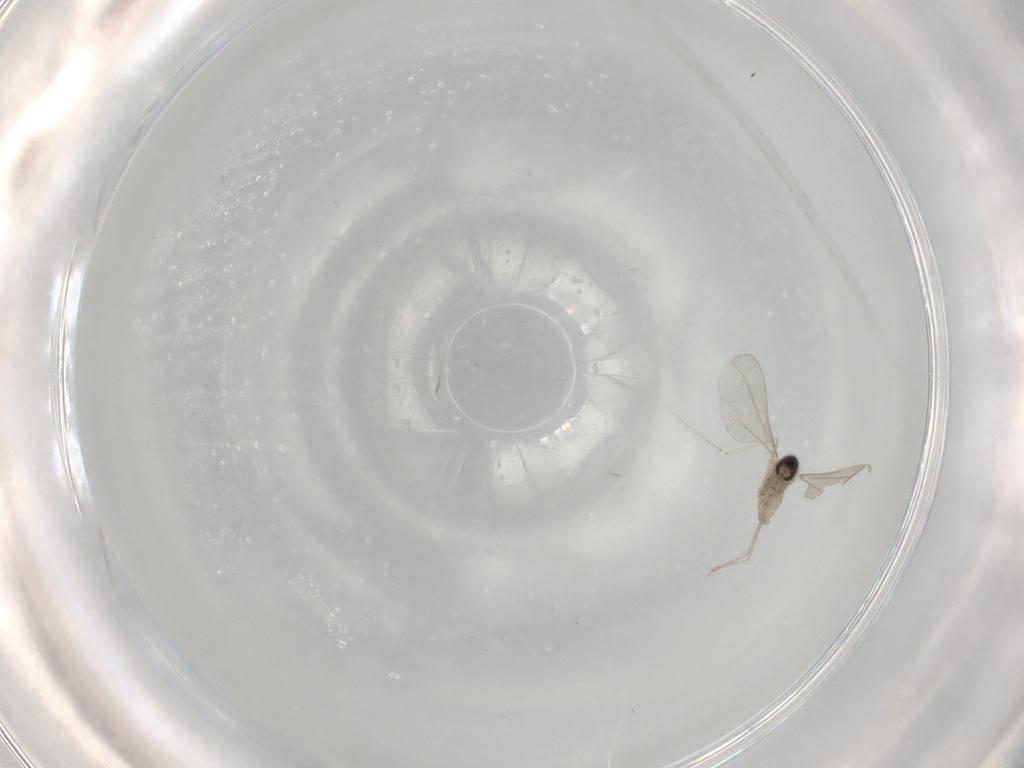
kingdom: Animalia
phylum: Arthropoda
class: Insecta
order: Diptera
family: Cecidomyiidae
